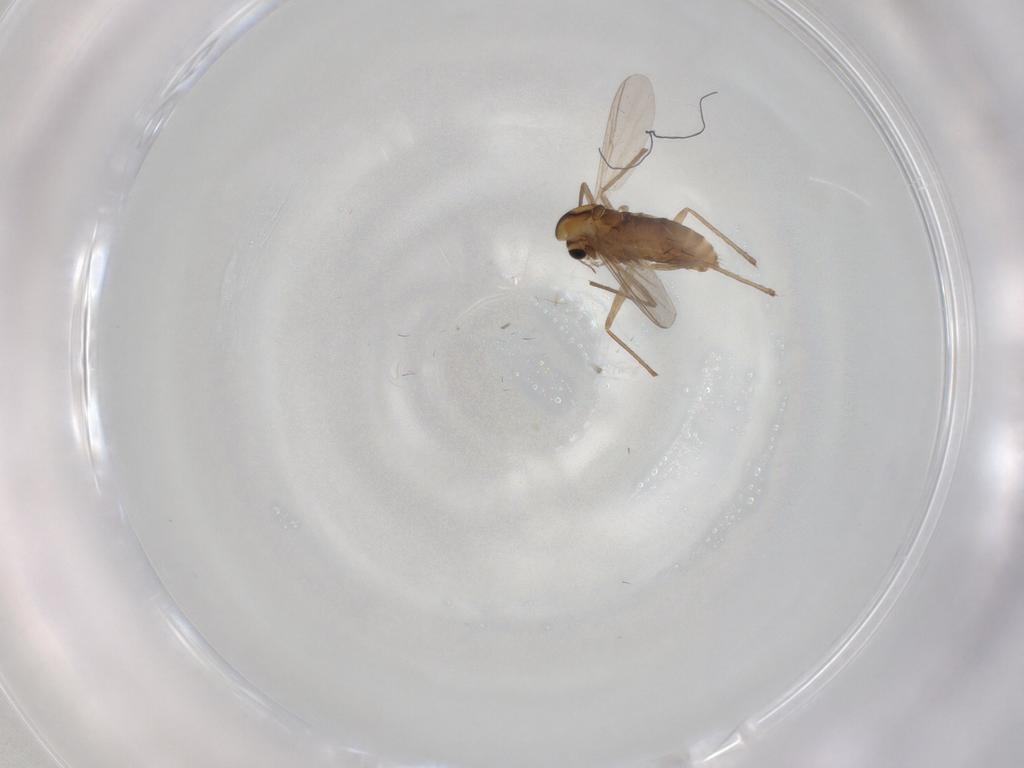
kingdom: Animalia
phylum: Arthropoda
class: Insecta
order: Diptera
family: Chironomidae
